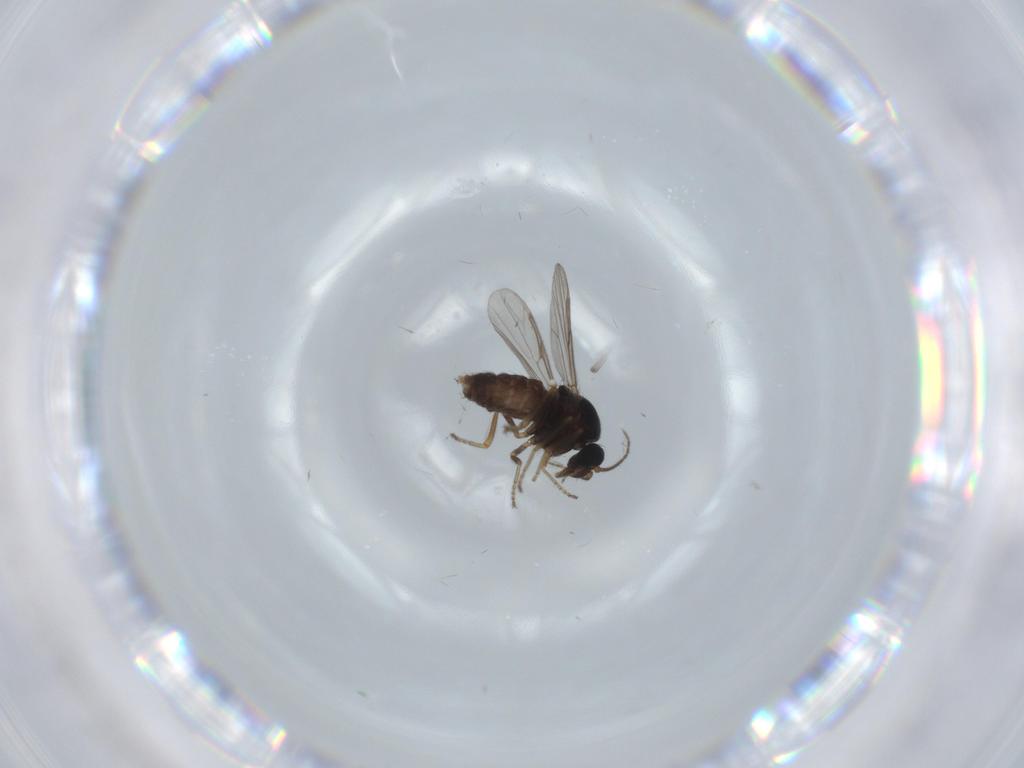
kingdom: Animalia
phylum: Arthropoda
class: Insecta
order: Diptera
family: Ceratopogonidae
